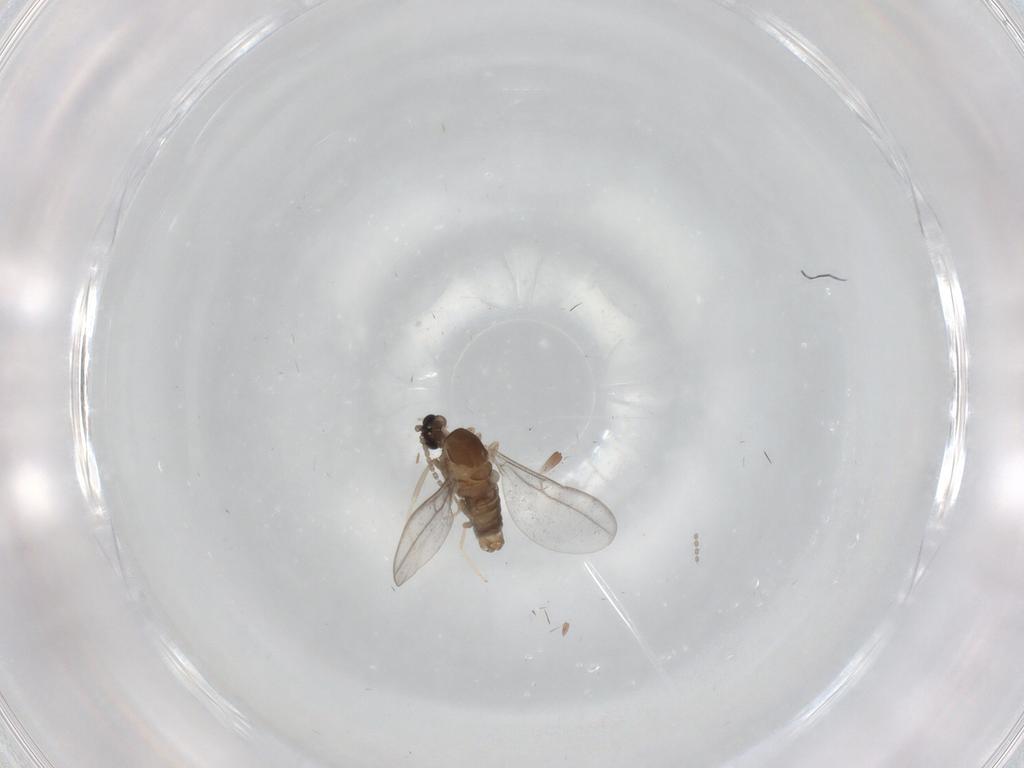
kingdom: Animalia
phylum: Arthropoda
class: Insecta
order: Diptera
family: Cecidomyiidae
